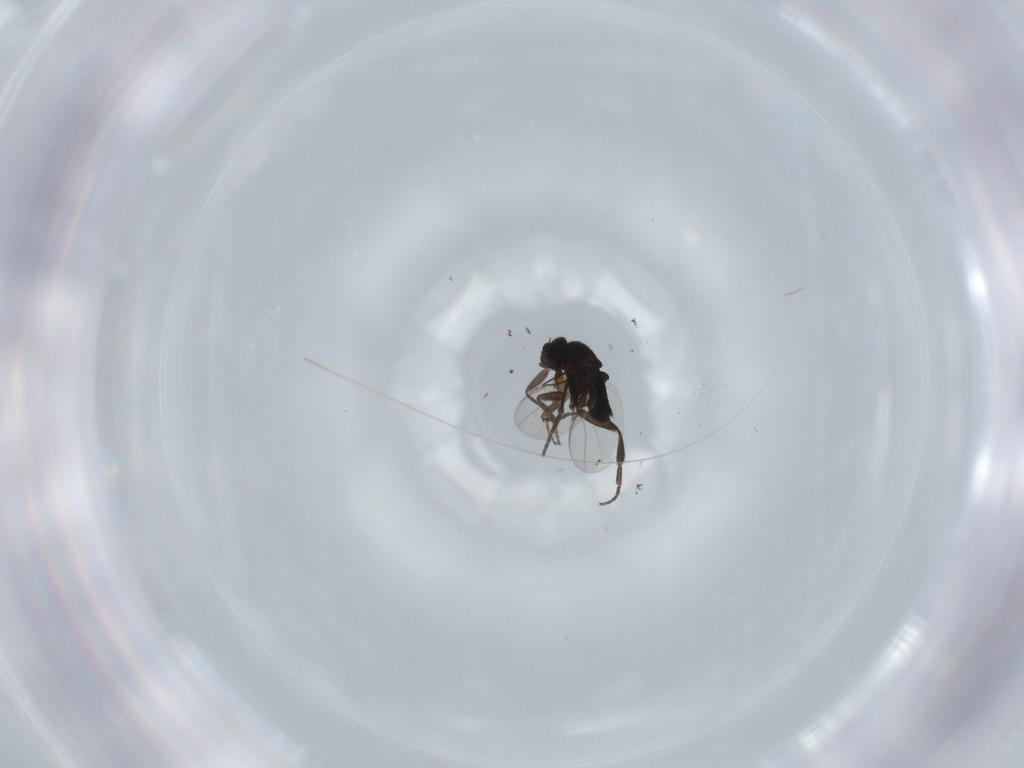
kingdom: Animalia
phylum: Arthropoda
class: Insecta
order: Diptera
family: Phoridae
